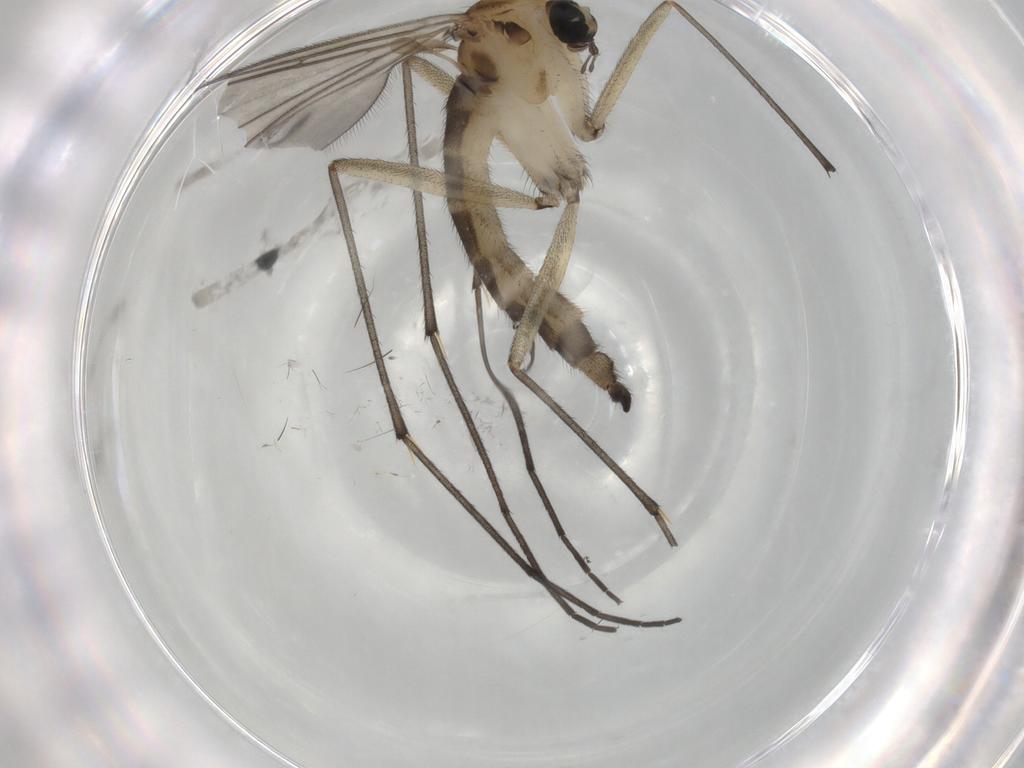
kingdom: Animalia
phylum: Arthropoda
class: Insecta
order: Diptera
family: Sciaridae
